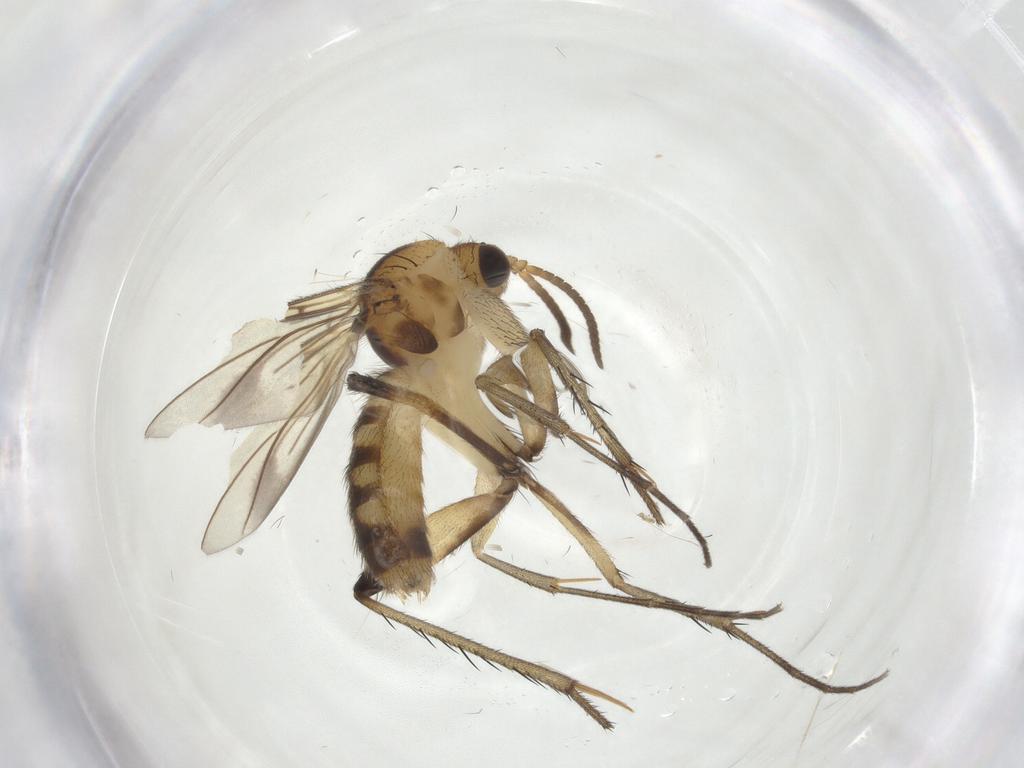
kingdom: Animalia
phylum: Arthropoda
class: Insecta
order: Diptera
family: Mycetophilidae
